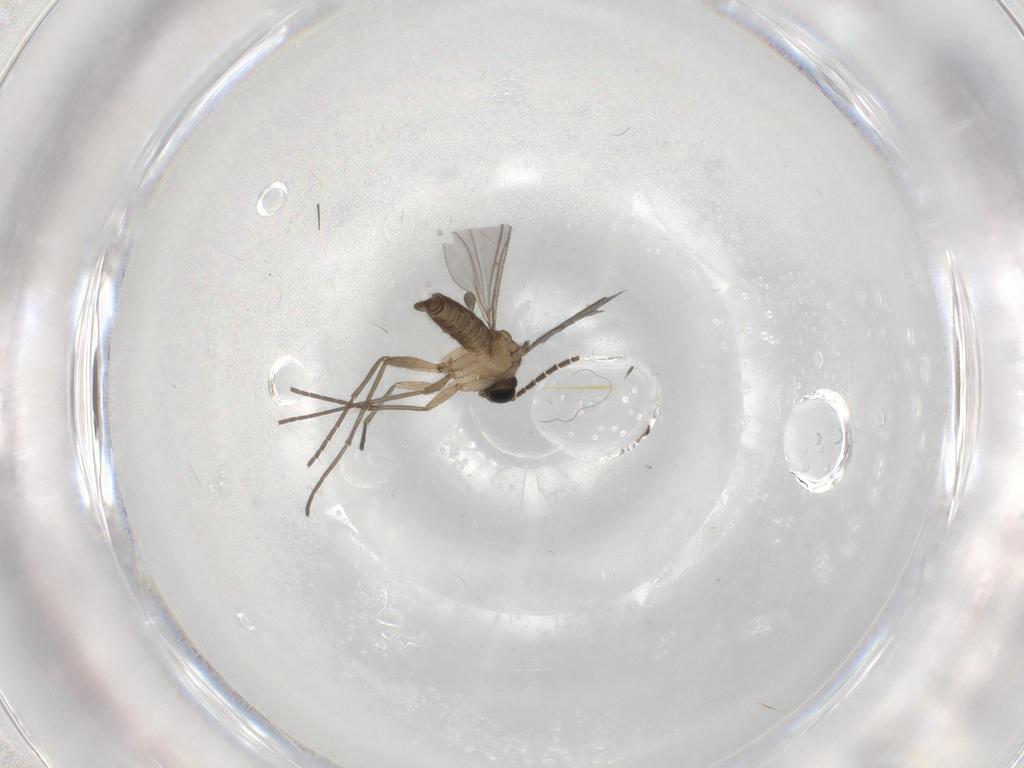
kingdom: Animalia
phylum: Arthropoda
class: Insecta
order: Diptera
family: Sciaridae
